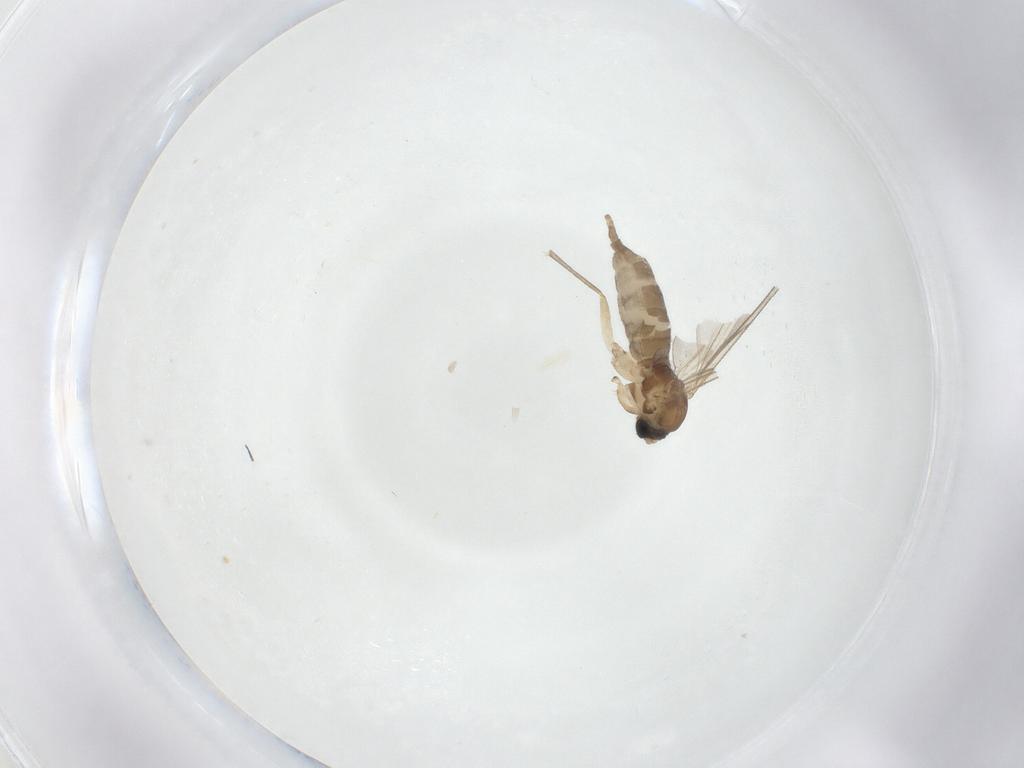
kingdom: Animalia
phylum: Arthropoda
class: Insecta
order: Diptera
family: Sciaridae
